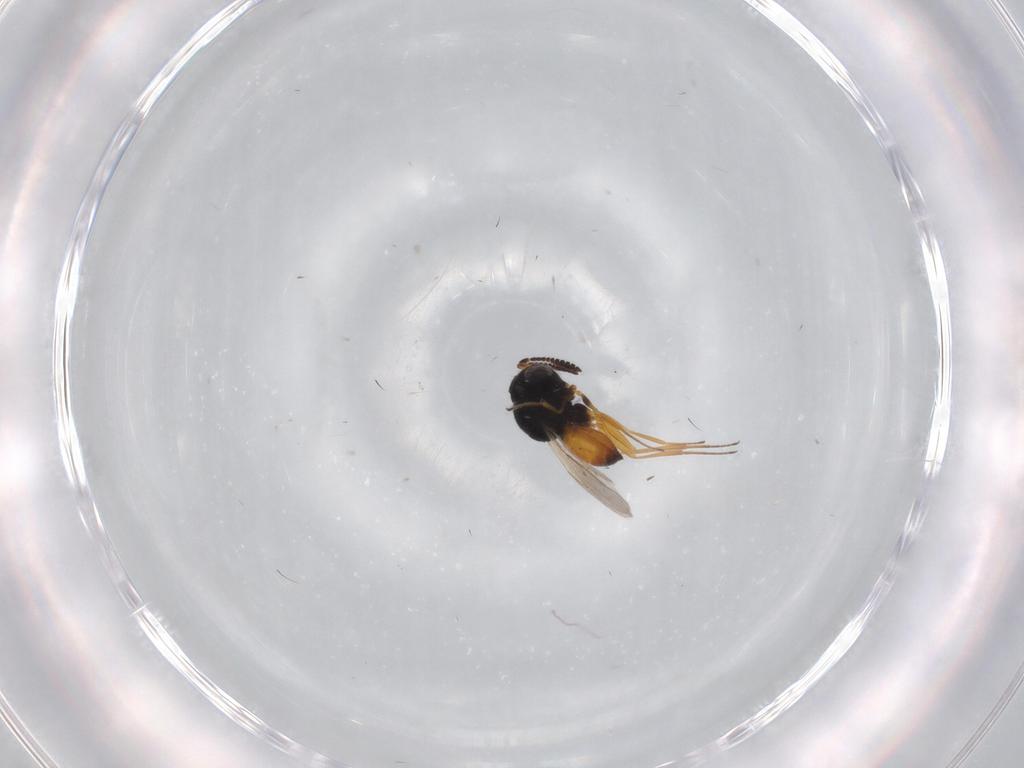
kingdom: Animalia
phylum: Arthropoda
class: Insecta
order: Hymenoptera
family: Scelionidae
